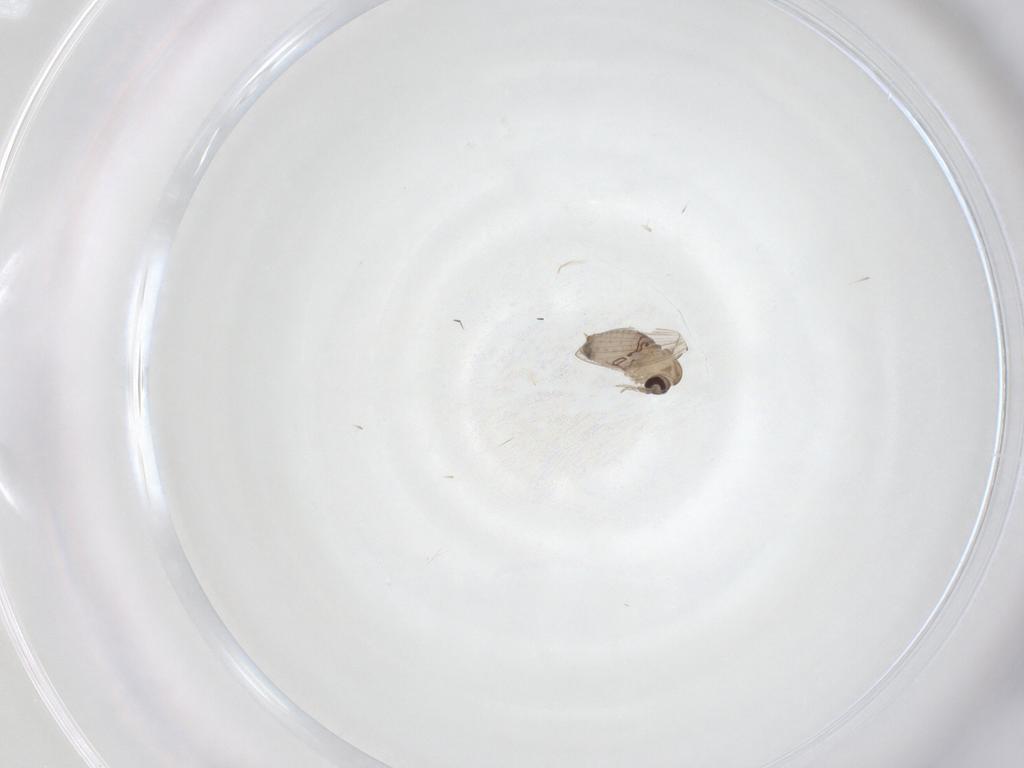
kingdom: Animalia
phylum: Arthropoda
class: Insecta
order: Diptera
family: Psychodidae
